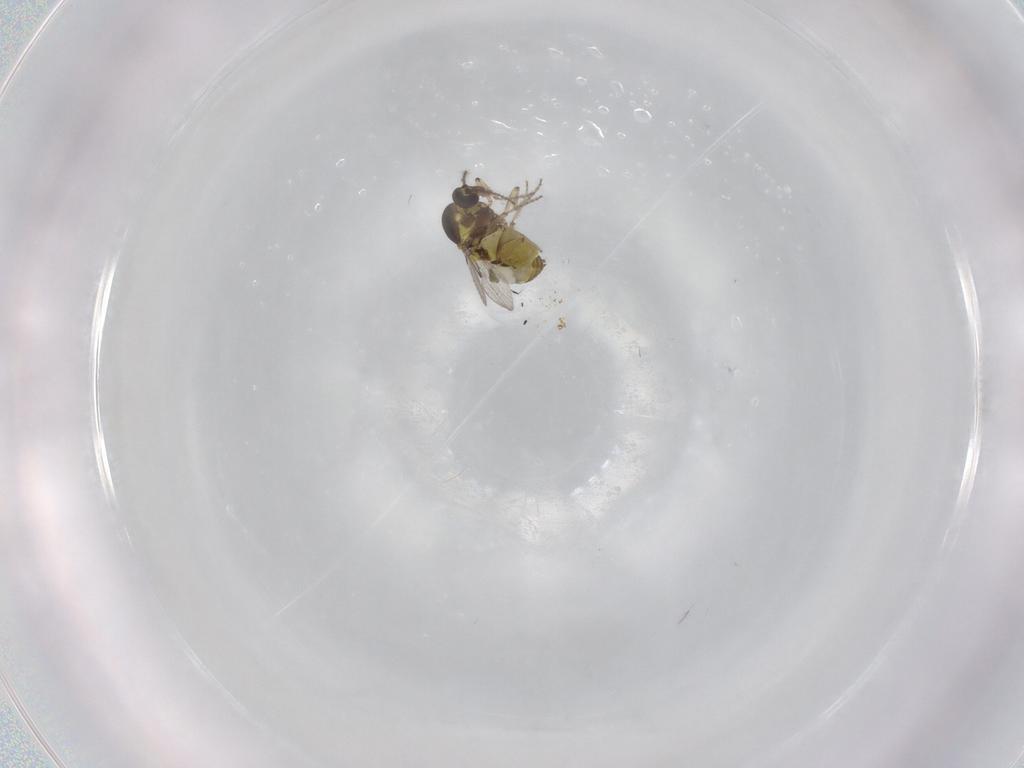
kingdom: Animalia
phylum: Arthropoda
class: Insecta
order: Diptera
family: Ceratopogonidae
